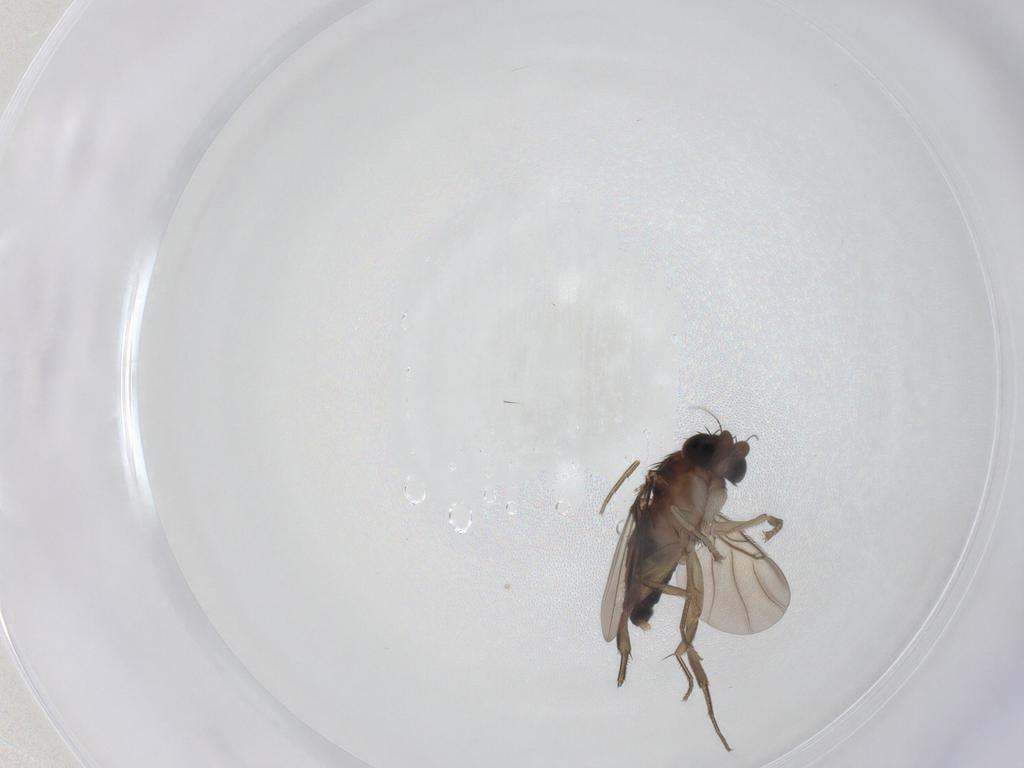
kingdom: Animalia
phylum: Arthropoda
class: Insecta
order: Diptera
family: Phoridae
